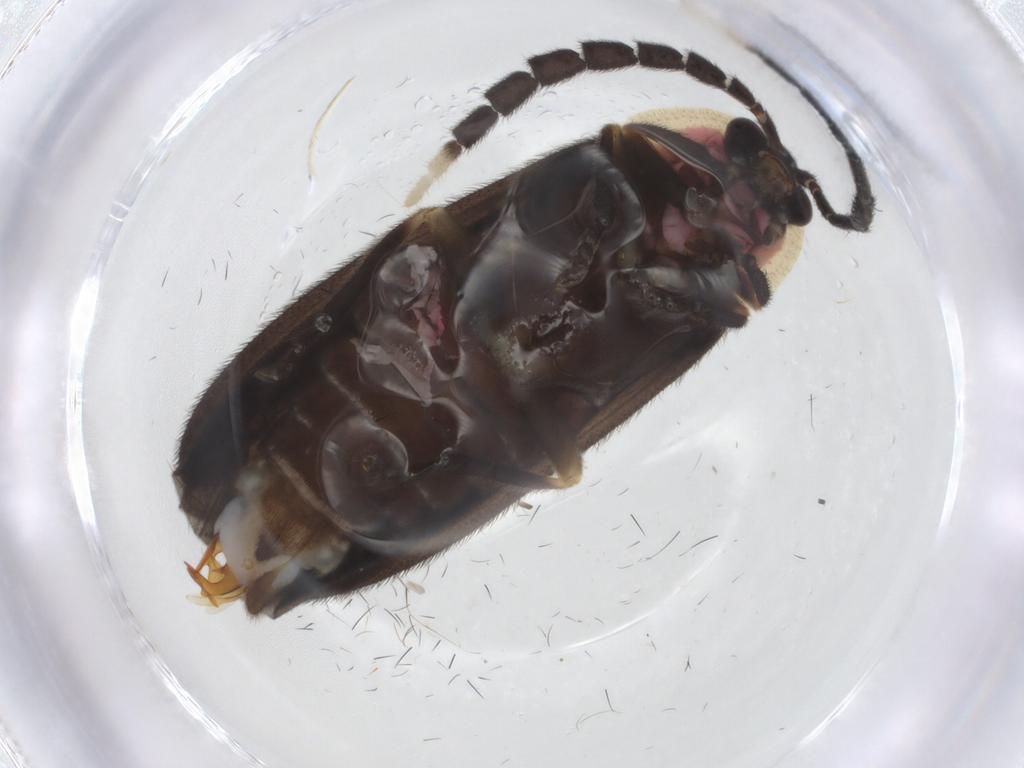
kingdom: Animalia
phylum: Arthropoda
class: Insecta
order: Coleoptera
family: Lampyridae
